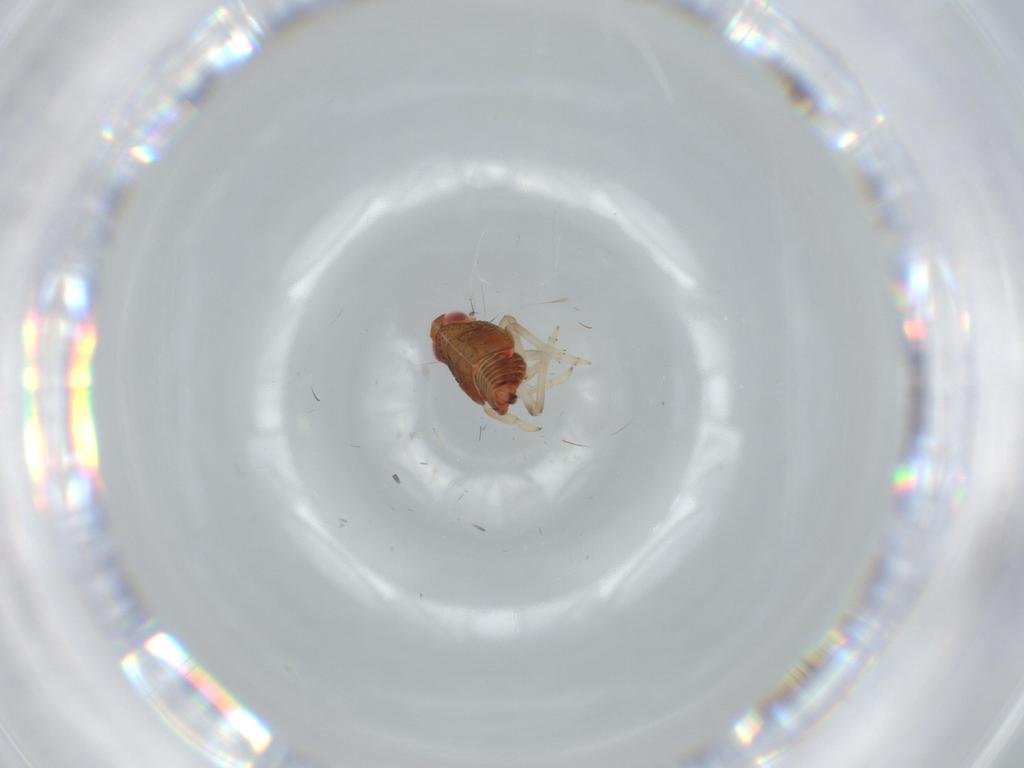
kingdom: Animalia
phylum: Arthropoda
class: Insecta
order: Hemiptera
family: Issidae
